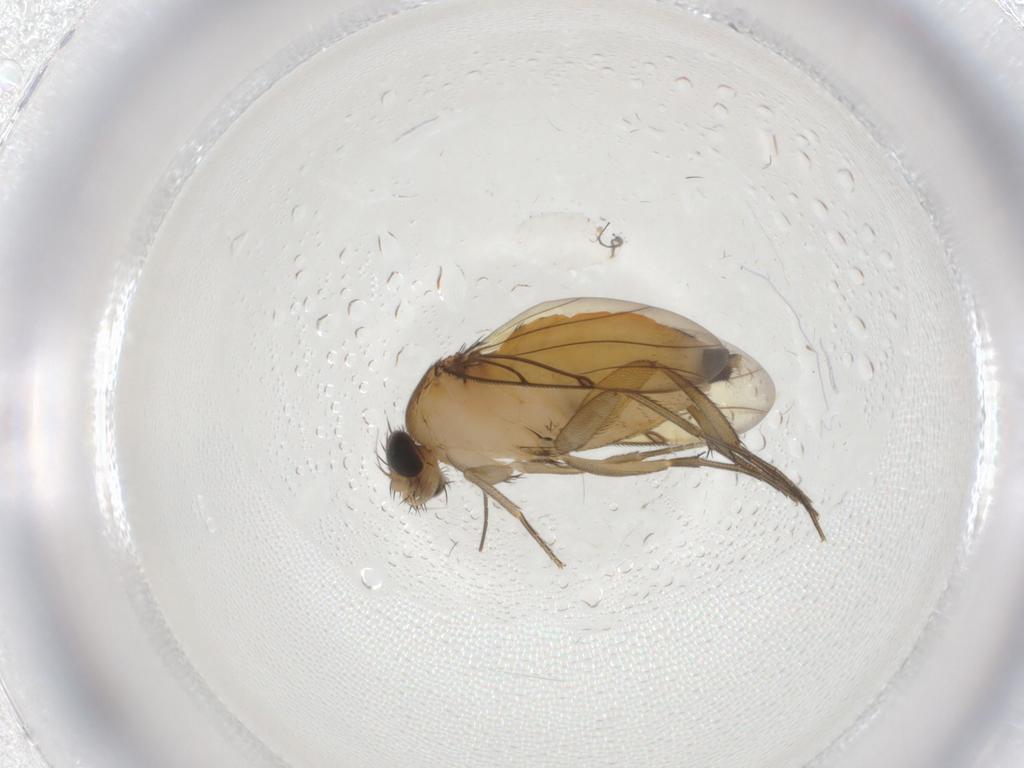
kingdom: Animalia
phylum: Arthropoda
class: Insecta
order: Diptera
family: Sciaridae
